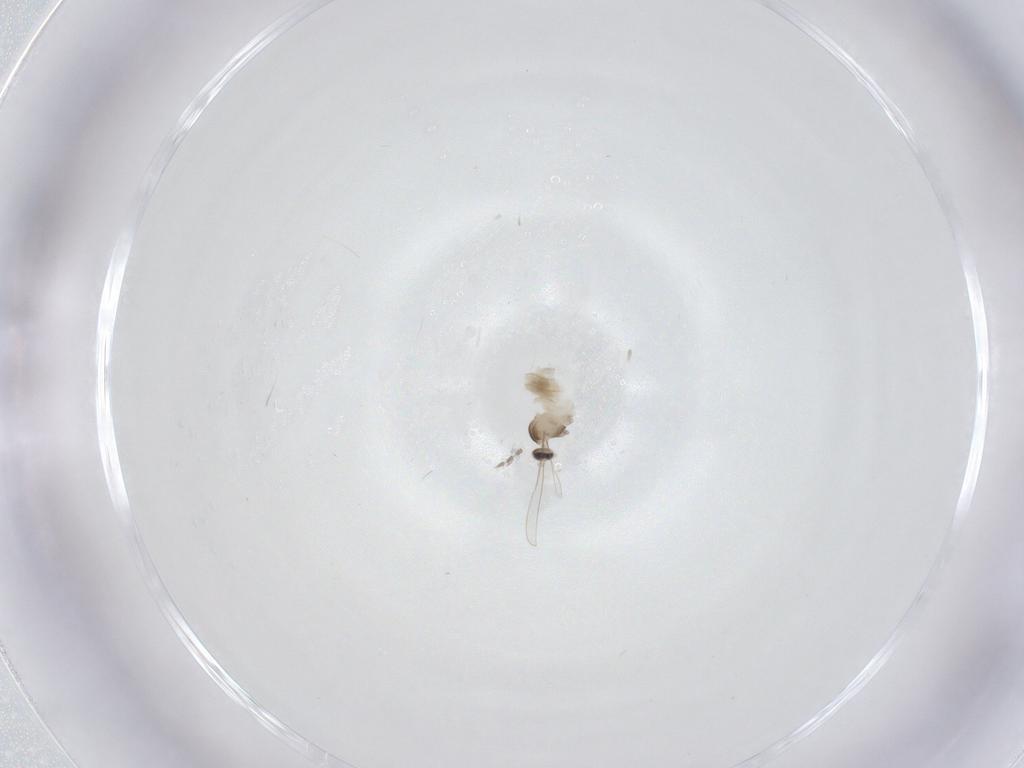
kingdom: Animalia
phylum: Arthropoda
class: Insecta
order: Diptera
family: Cecidomyiidae
